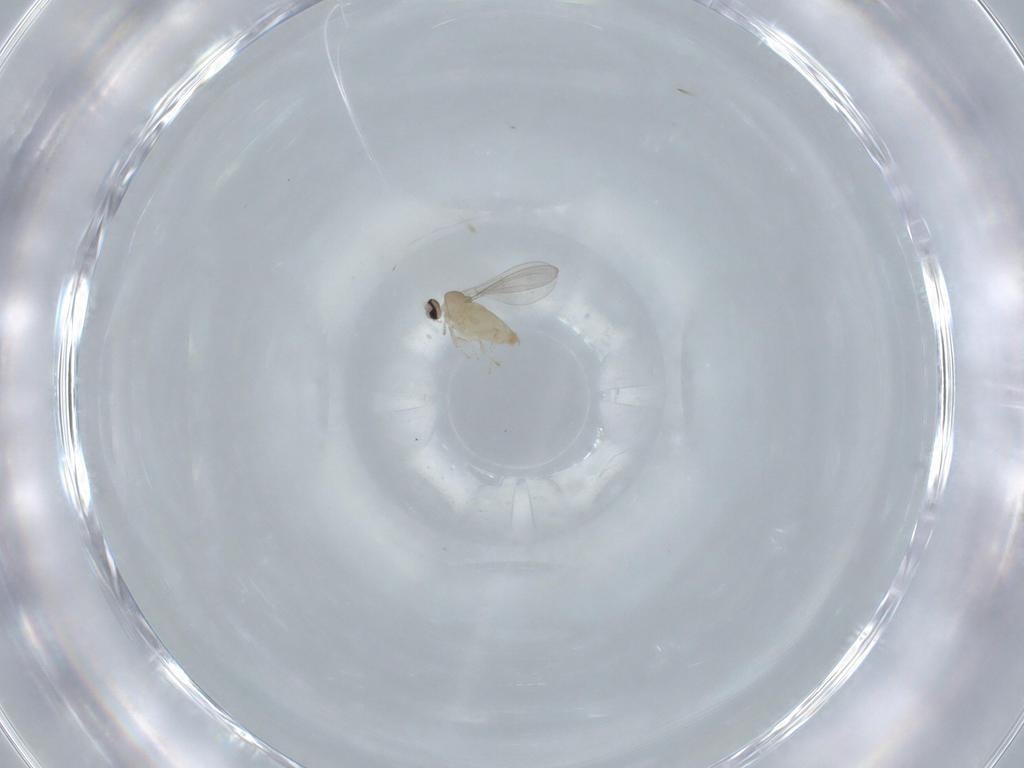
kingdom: Animalia
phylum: Arthropoda
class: Insecta
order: Diptera
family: Cecidomyiidae
